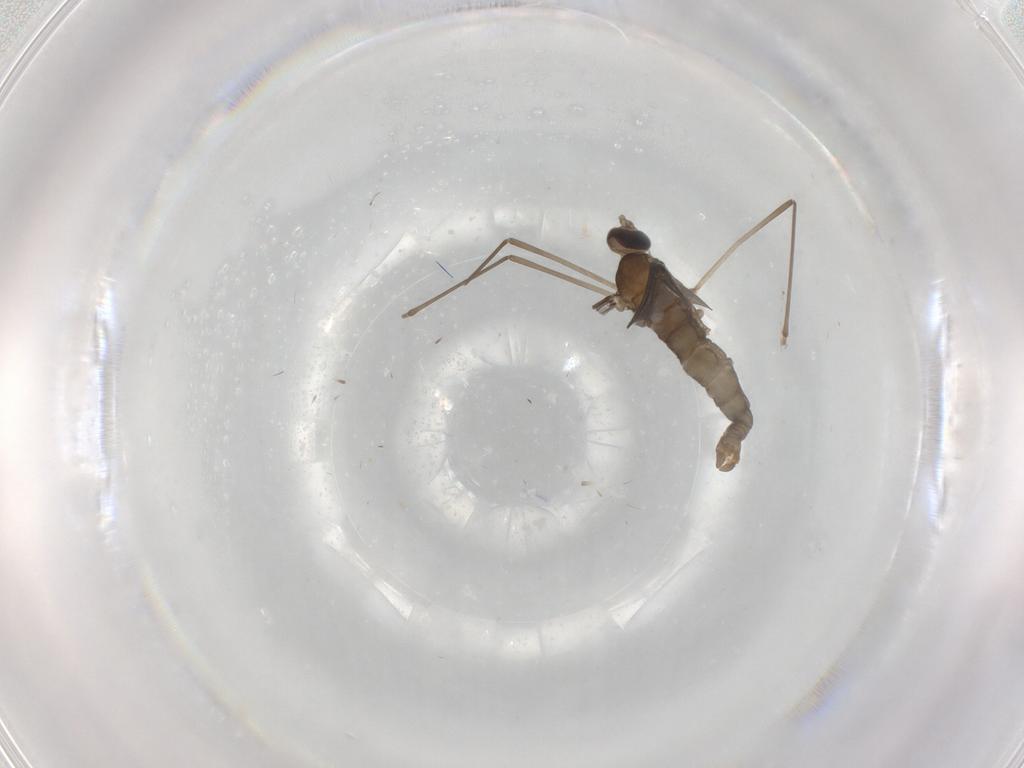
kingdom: Animalia
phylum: Arthropoda
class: Insecta
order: Diptera
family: Cecidomyiidae
